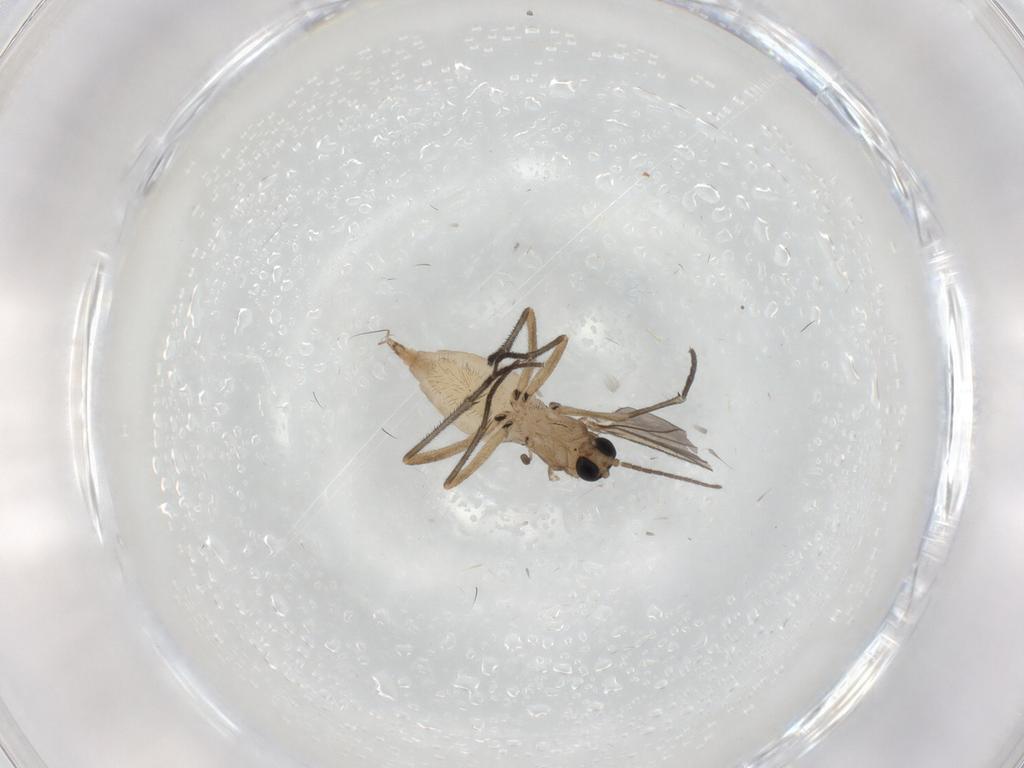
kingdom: Animalia
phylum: Arthropoda
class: Insecta
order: Diptera
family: Sciaridae
